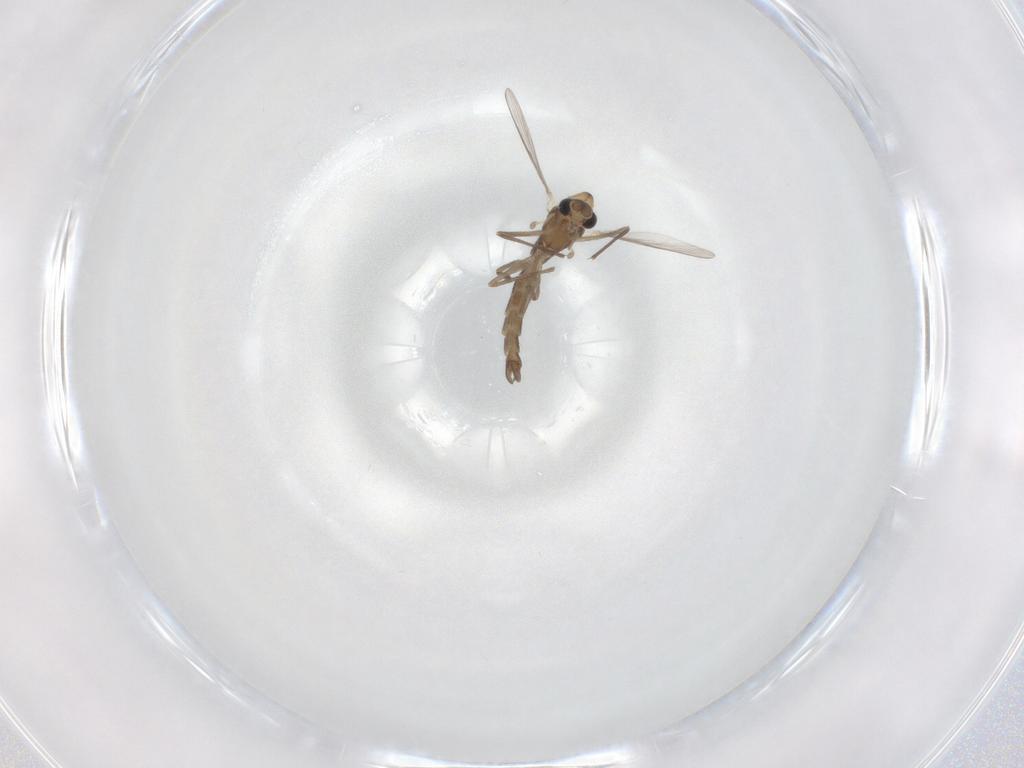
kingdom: Animalia
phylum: Arthropoda
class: Insecta
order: Diptera
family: Chironomidae
